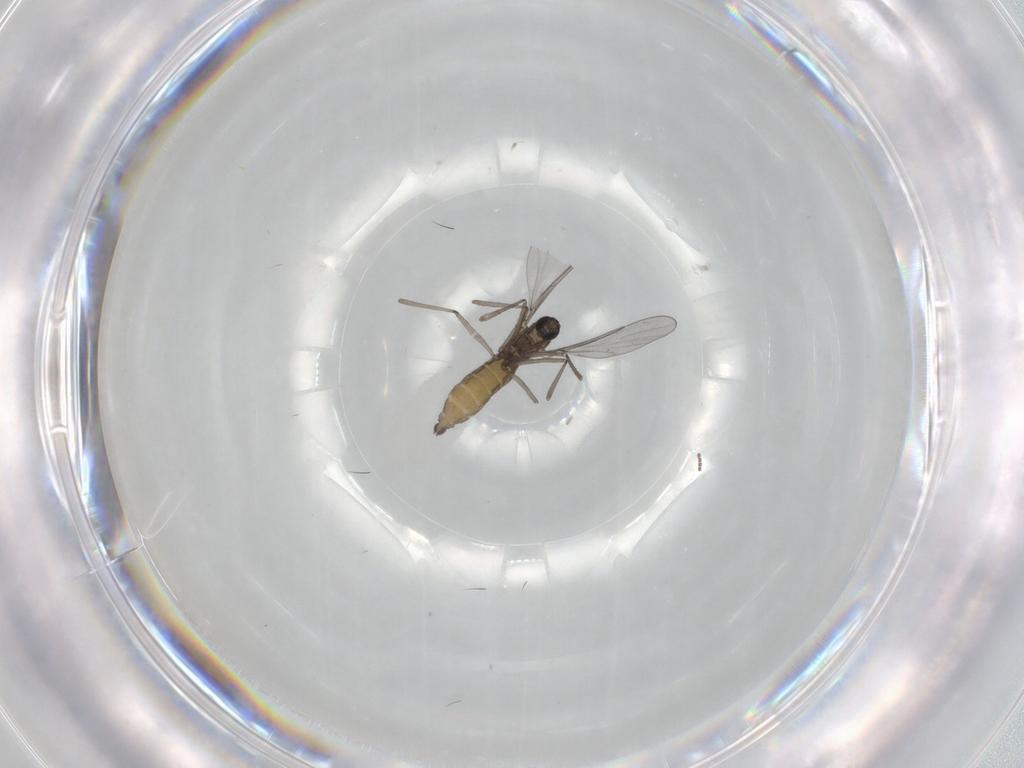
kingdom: Animalia
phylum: Arthropoda
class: Insecta
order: Diptera
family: Cecidomyiidae
